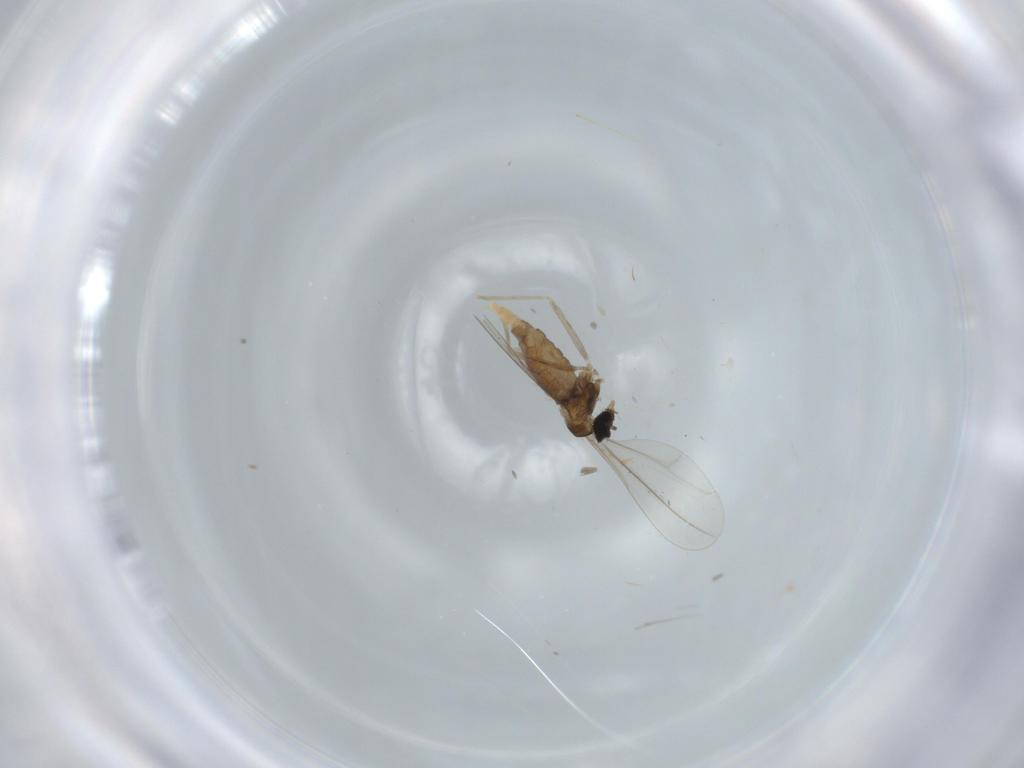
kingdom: Animalia
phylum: Arthropoda
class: Insecta
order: Diptera
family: Cecidomyiidae
